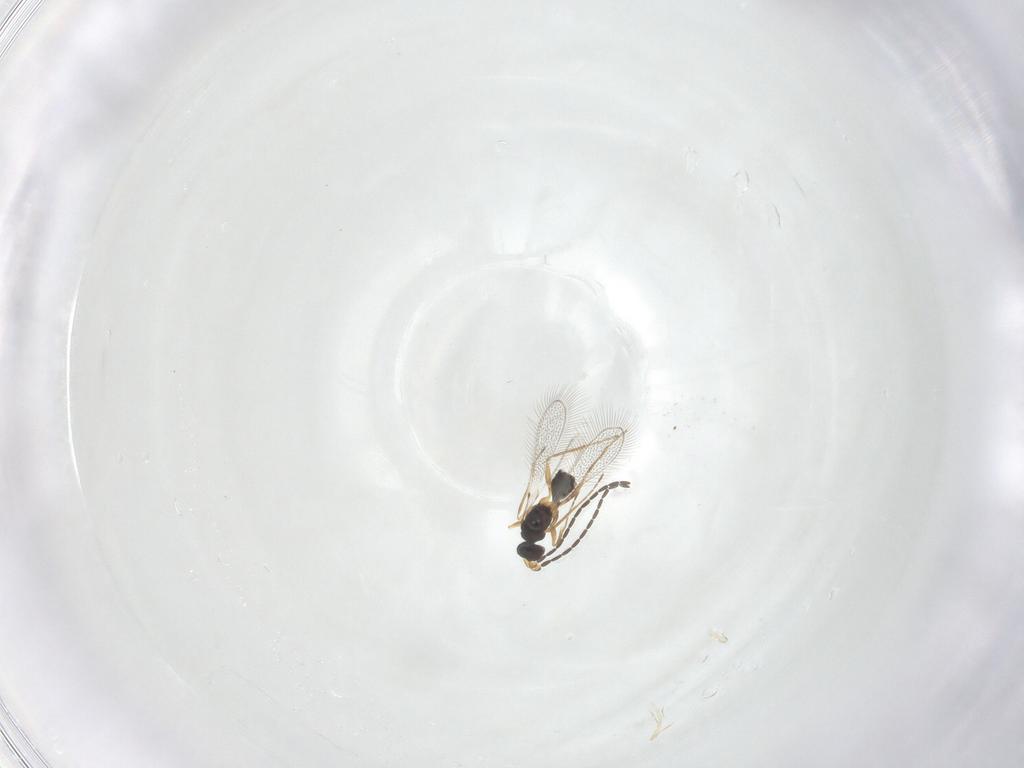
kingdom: Animalia
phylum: Arthropoda
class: Insecta
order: Hymenoptera
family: Mymaridae
